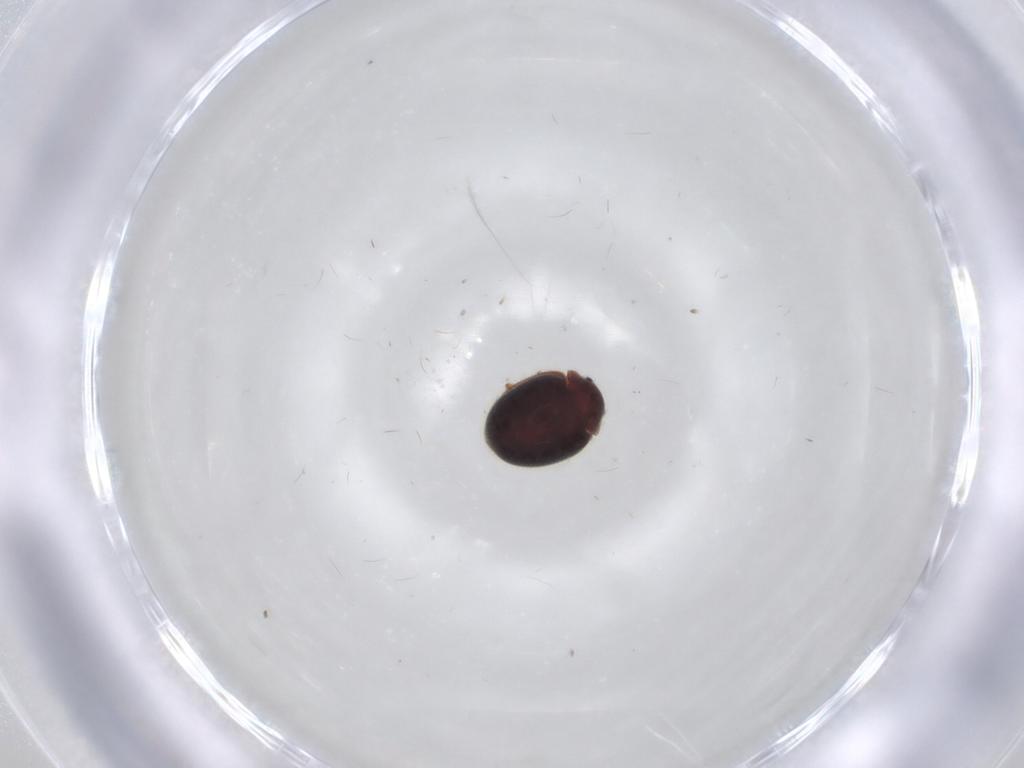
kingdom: Animalia
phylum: Arthropoda
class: Insecta
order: Coleoptera
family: Coccinellidae
